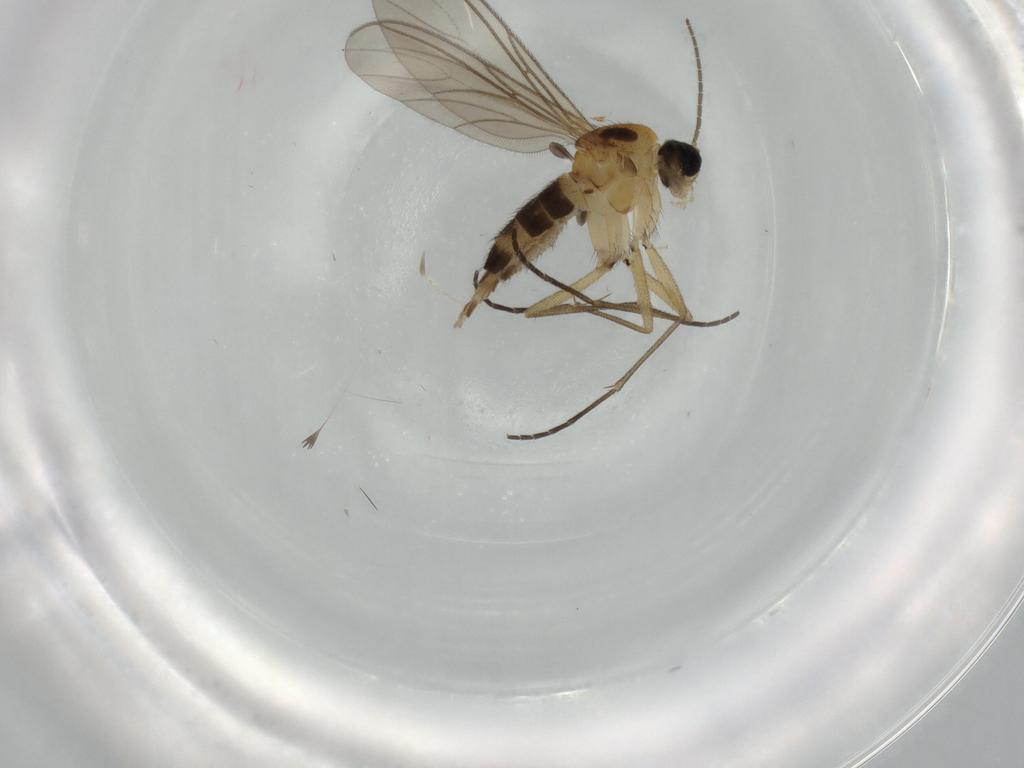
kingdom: Animalia
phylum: Arthropoda
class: Insecta
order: Diptera
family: Sciaridae
